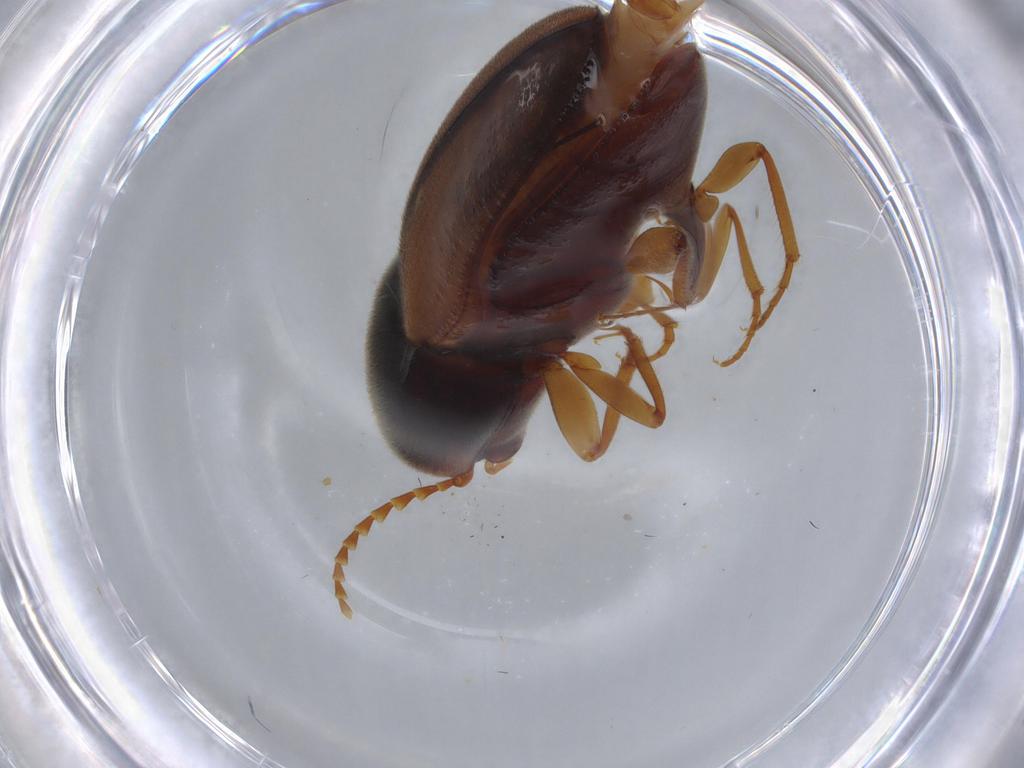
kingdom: Animalia
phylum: Arthropoda
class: Insecta
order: Coleoptera
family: Elateridae
